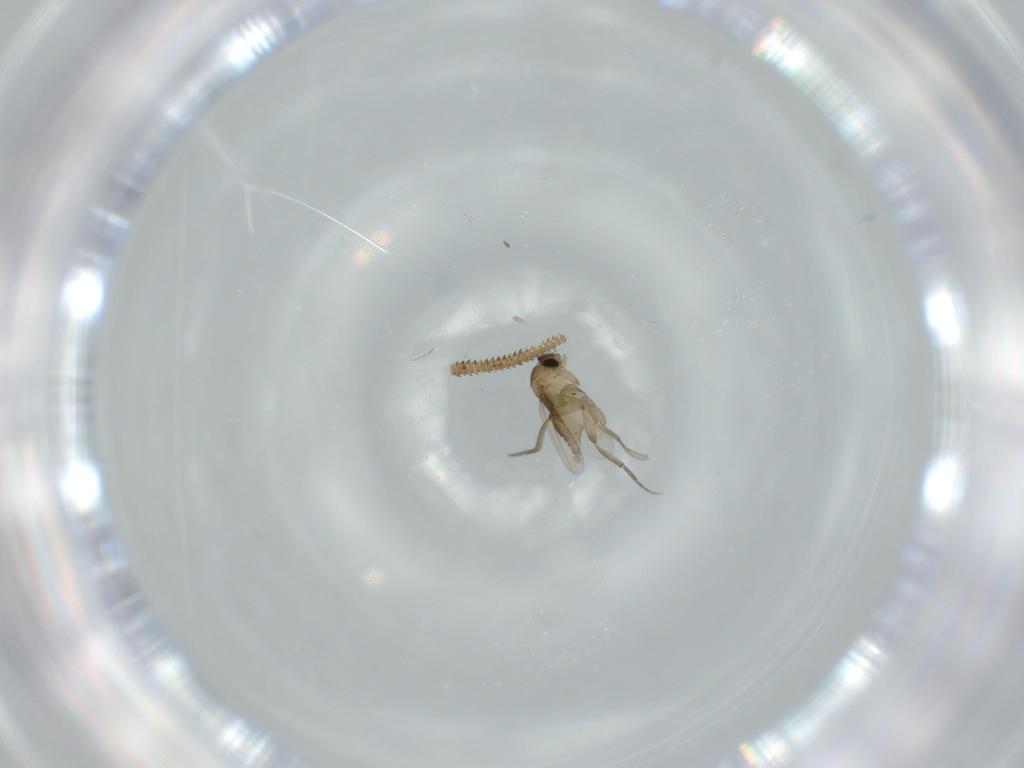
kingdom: Animalia
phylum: Arthropoda
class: Insecta
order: Diptera
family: Phoridae
